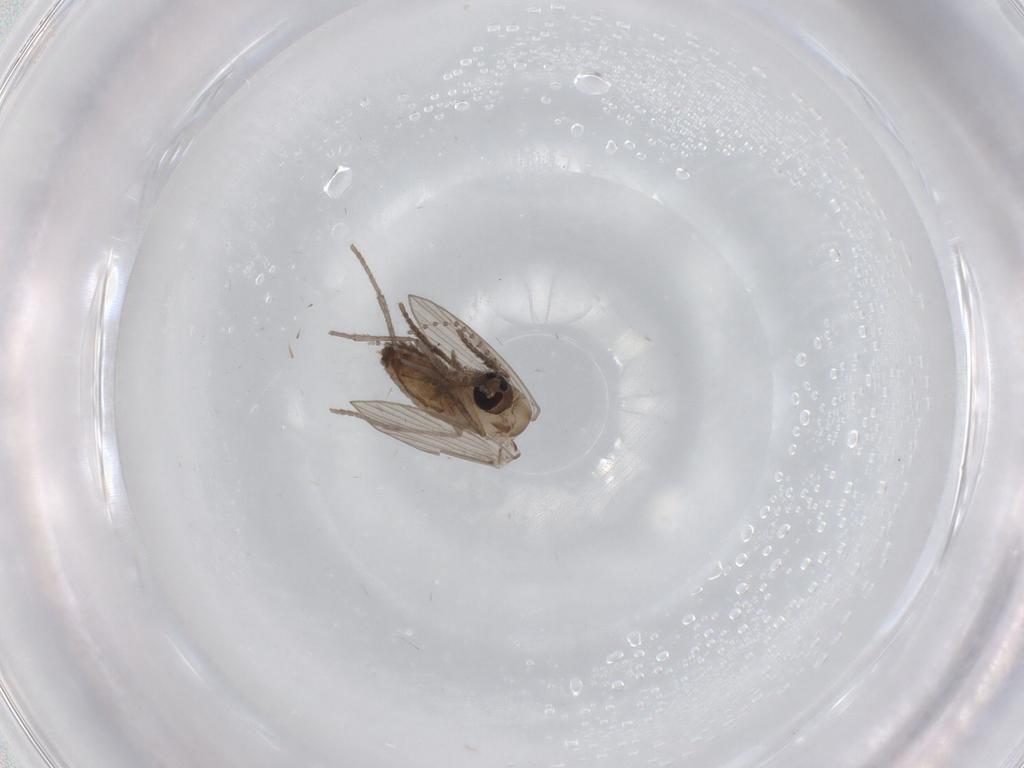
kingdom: Animalia
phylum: Arthropoda
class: Insecta
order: Diptera
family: Psychodidae
